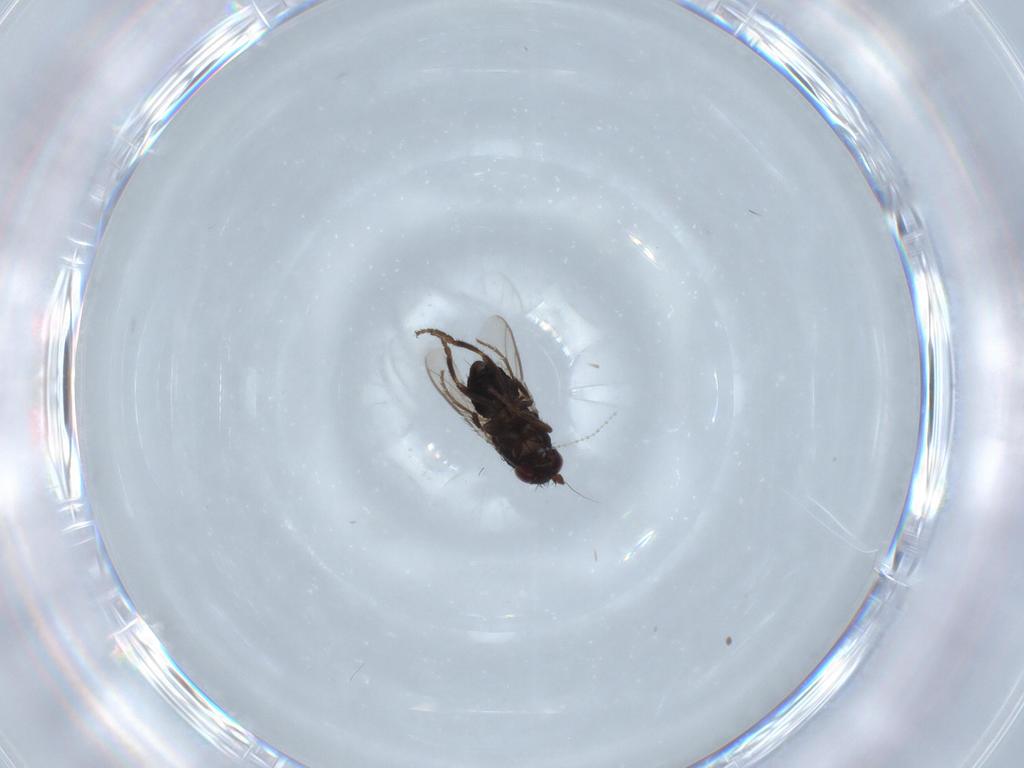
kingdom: Animalia
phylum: Arthropoda
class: Insecta
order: Diptera
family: Sphaeroceridae
